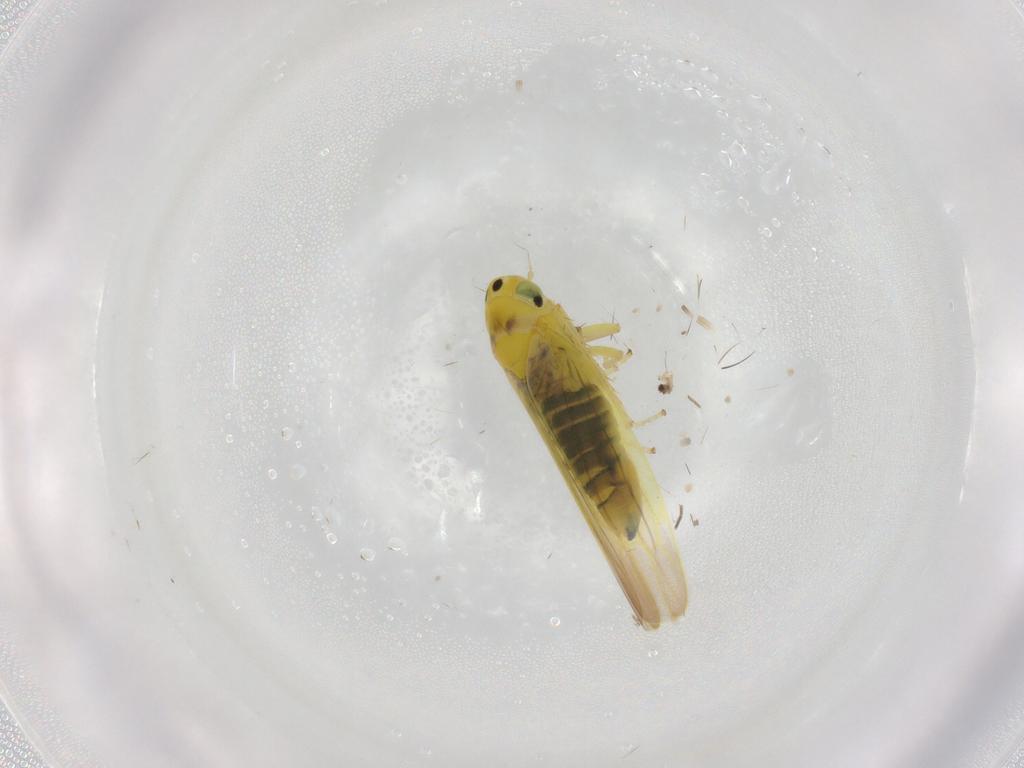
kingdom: Animalia
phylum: Arthropoda
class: Insecta
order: Hemiptera
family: Cicadellidae
